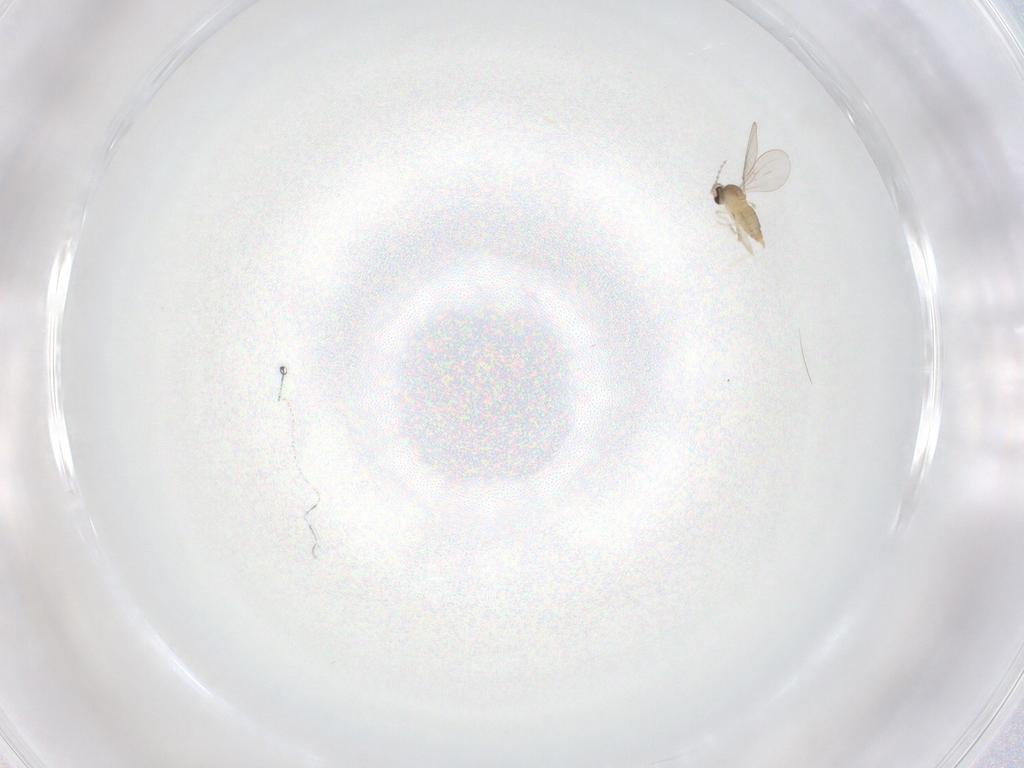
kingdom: Animalia
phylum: Arthropoda
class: Insecta
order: Diptera
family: Cecidomyiidae
